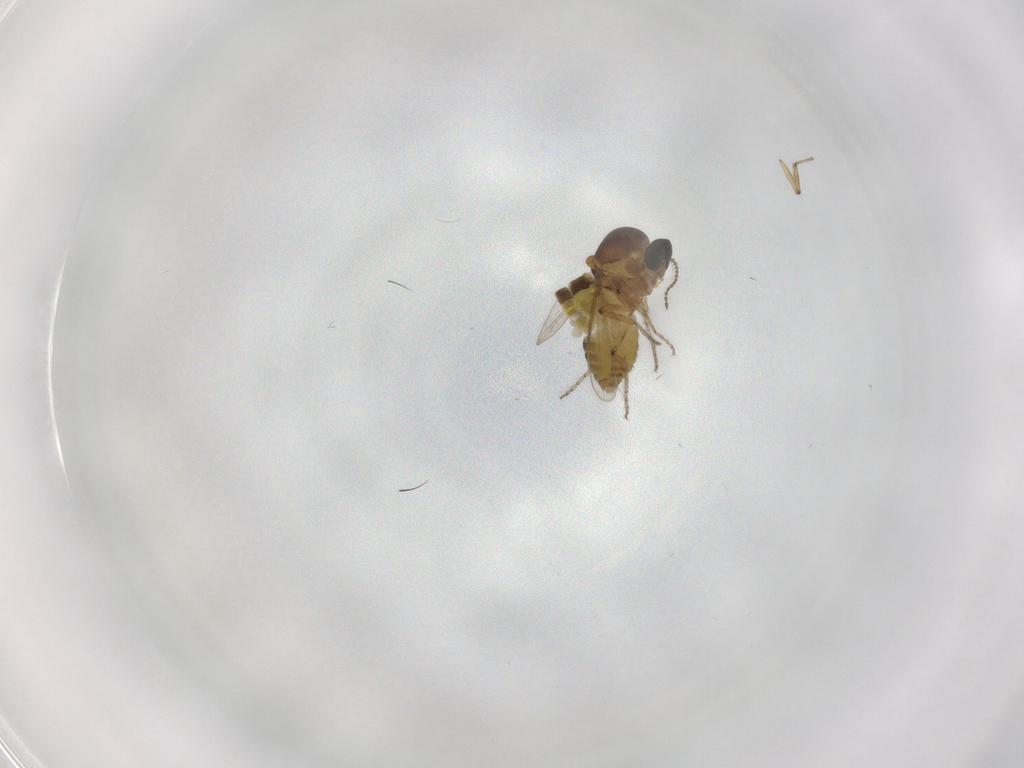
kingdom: Animalia
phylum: Arthropoda
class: Insecta
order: Diptera
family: Ceratopogonidae
